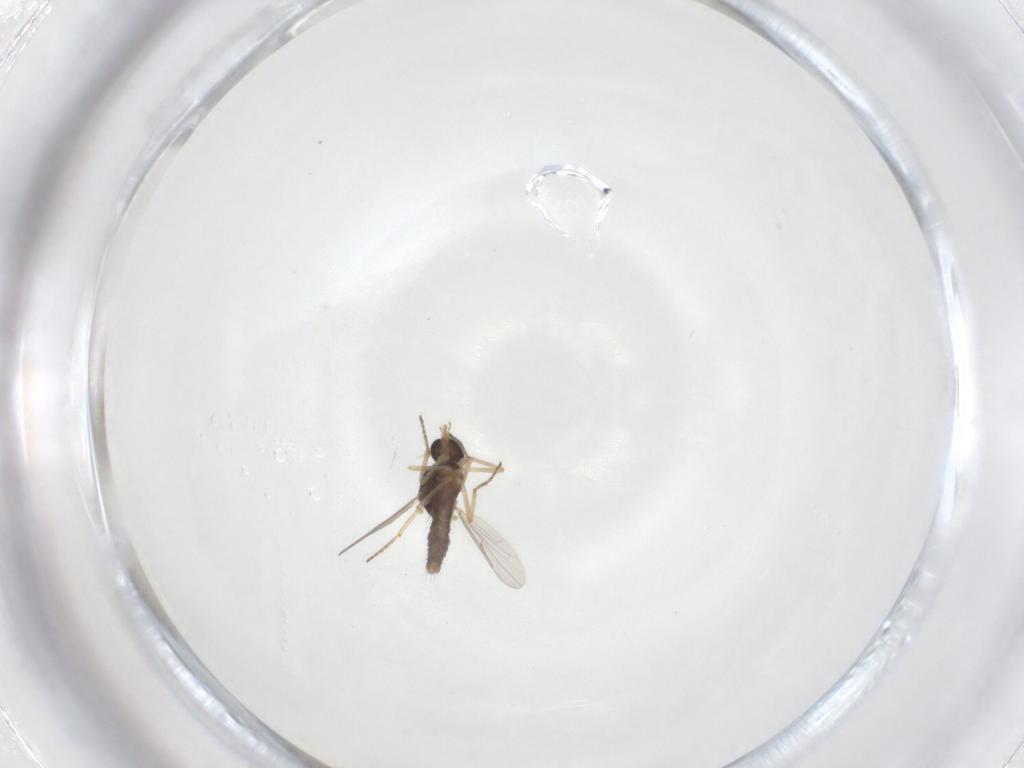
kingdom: Animalia
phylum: Arthropoda
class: Insecta
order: Diptera
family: Ceratopogonidae
